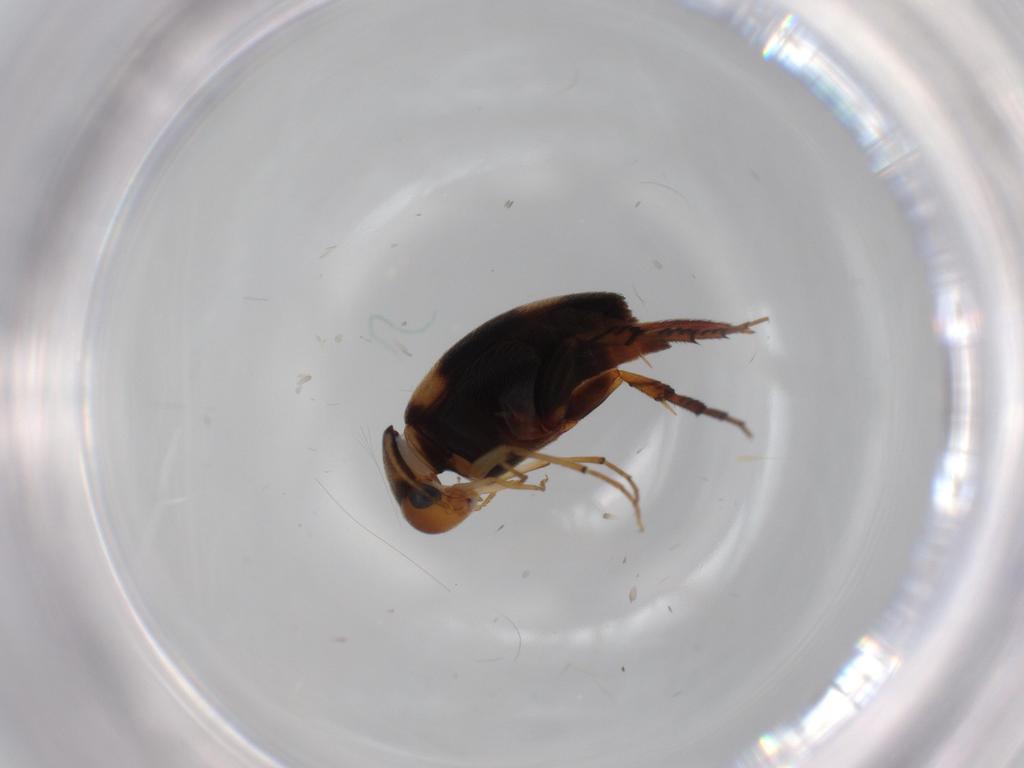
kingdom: Animalia
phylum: Arthropoda
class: Insecta
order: Coleoptera
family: Mordellidae
